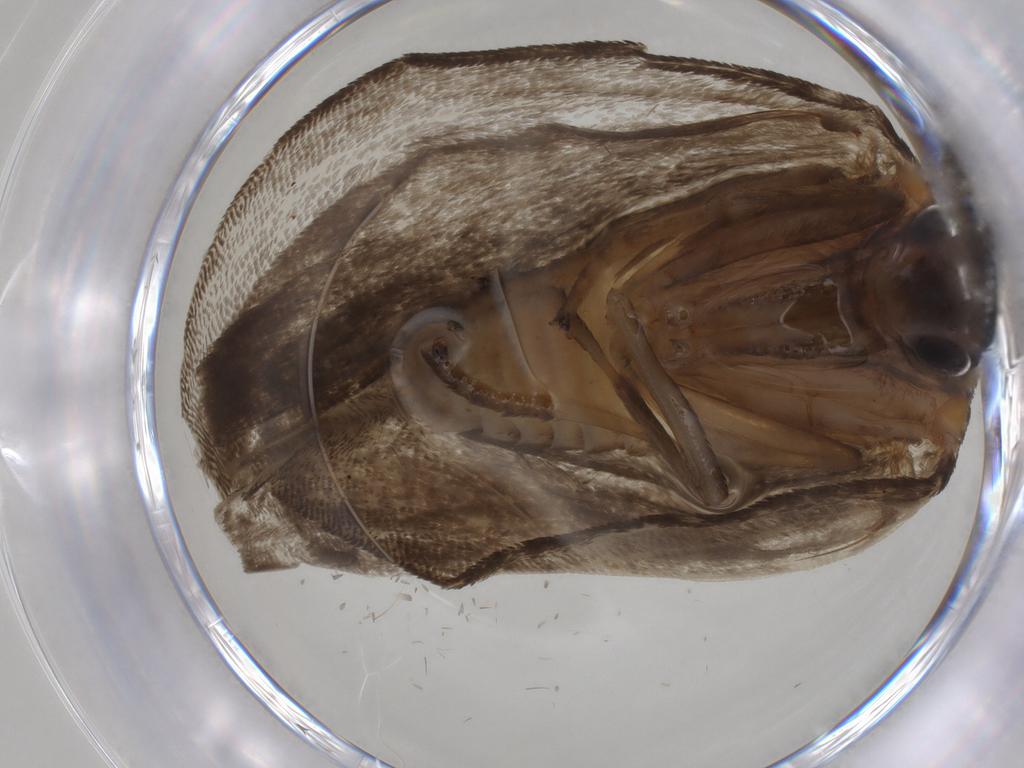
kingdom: Animalia
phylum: Arthropoda
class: Insecta
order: Lepidoptera
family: Erebidae
